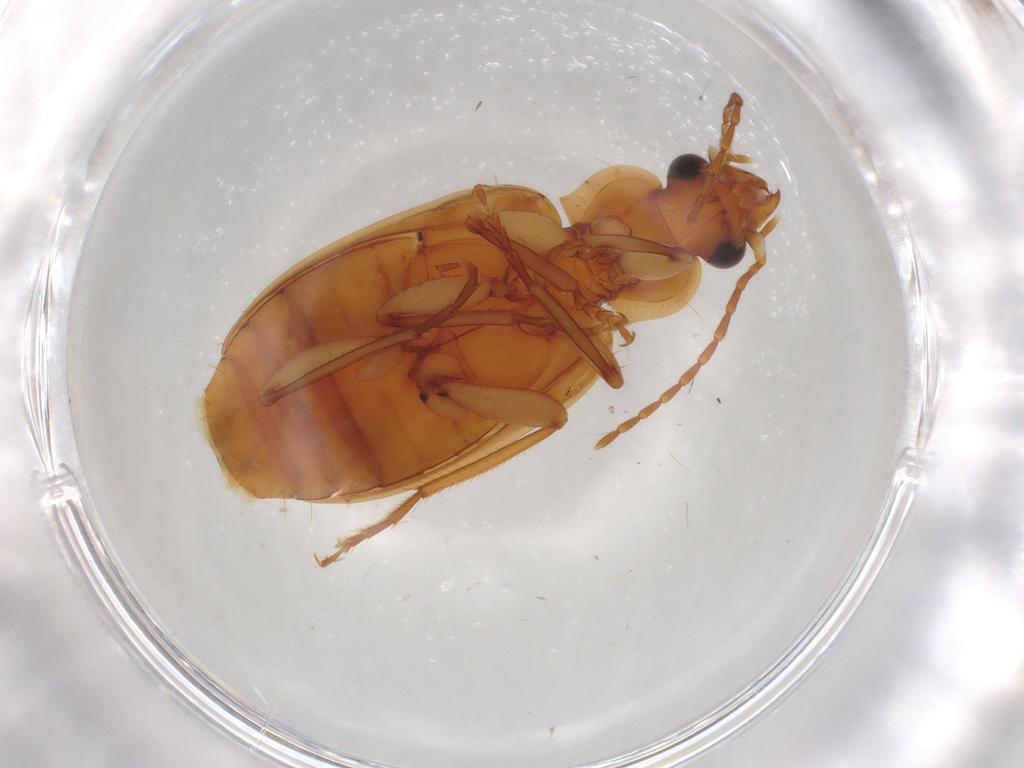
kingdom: Animalia
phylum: Arthropoda
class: Insecta
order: Coleoptera
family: Carabidae
